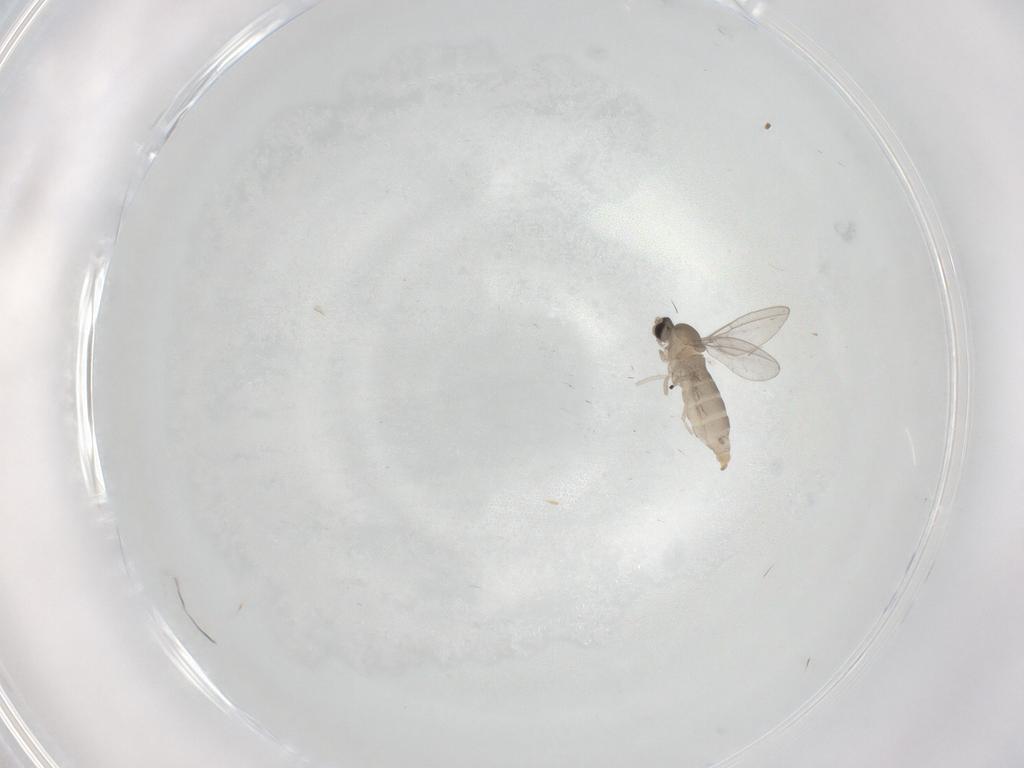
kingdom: Animalia
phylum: Arthropoda
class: Insecta
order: Diptera
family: Cecidomyiidae
